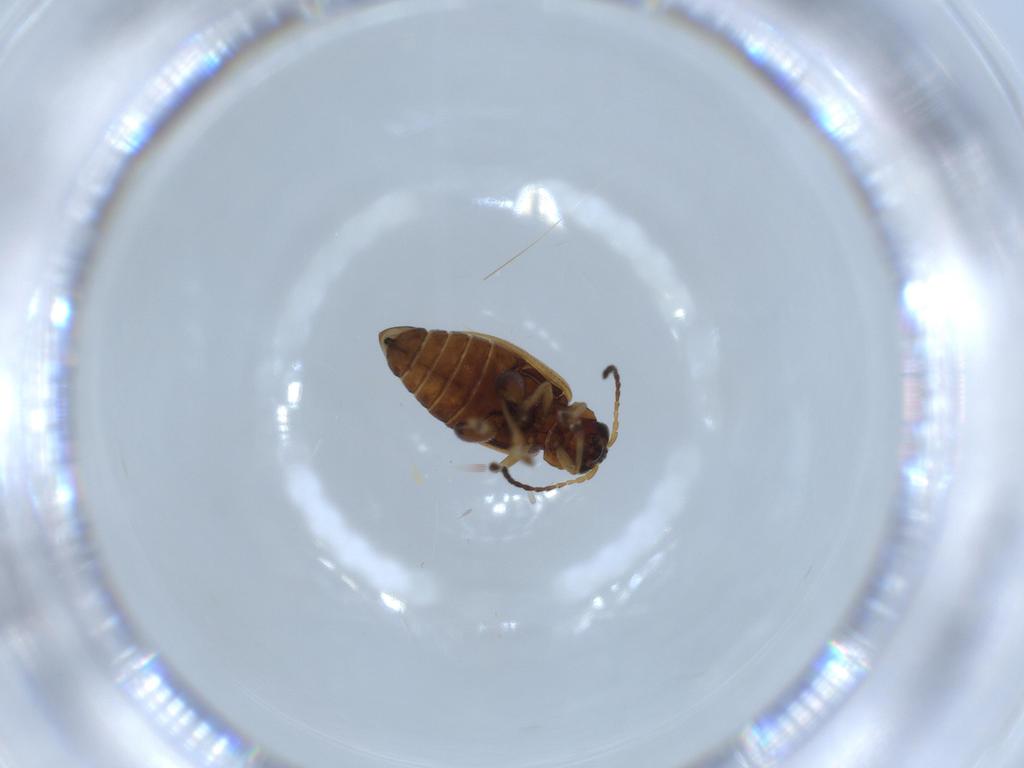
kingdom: Animalia
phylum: Arthropoda
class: Insecta
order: Coleoptera
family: Chrysomelidae
